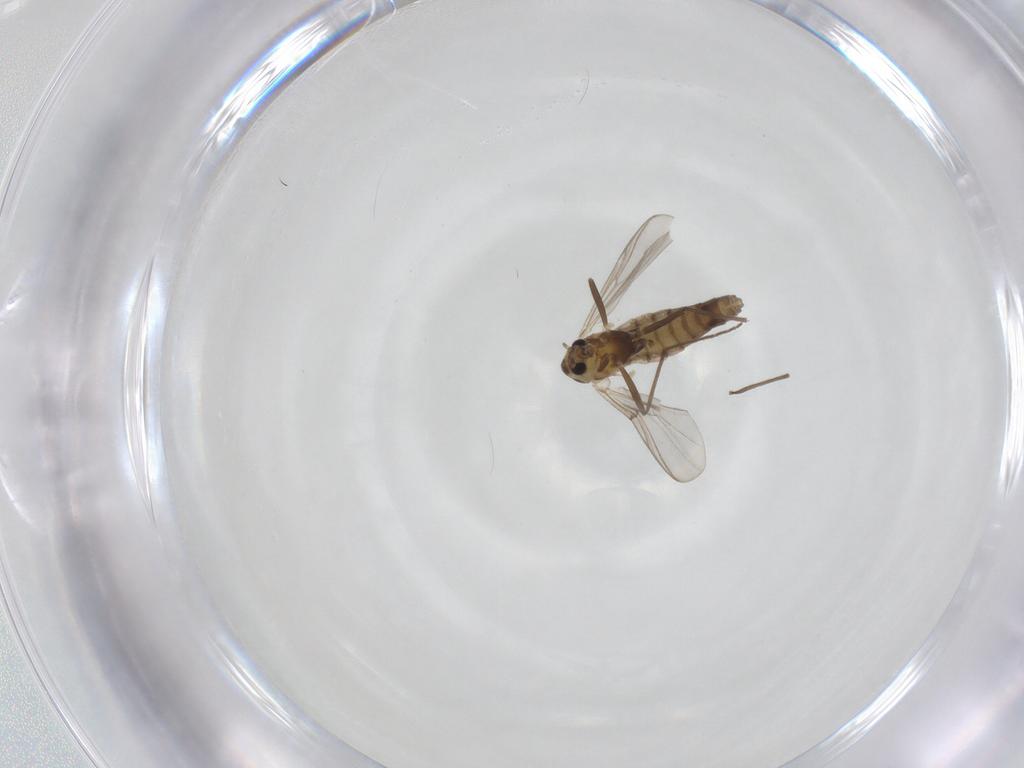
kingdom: Animalia
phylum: Arthropoda
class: Insecta
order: Diptera
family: Chironomidae
